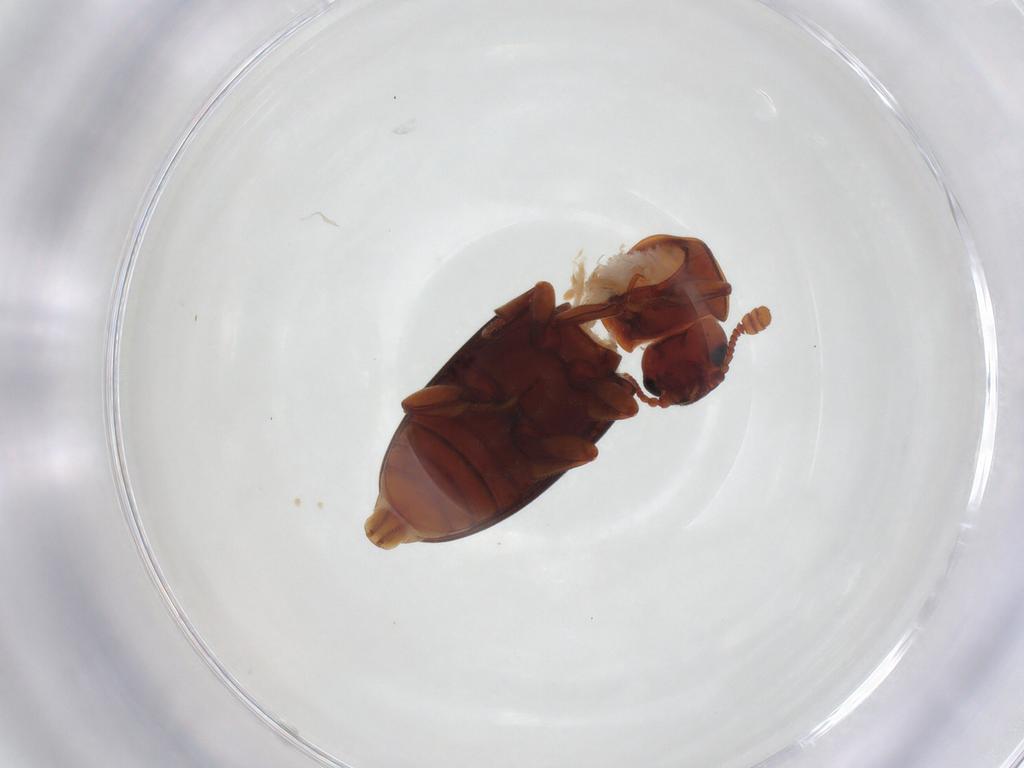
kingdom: Animalia
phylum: Arthropoda
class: Insecta
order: Coleoptera
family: Erotylidae
